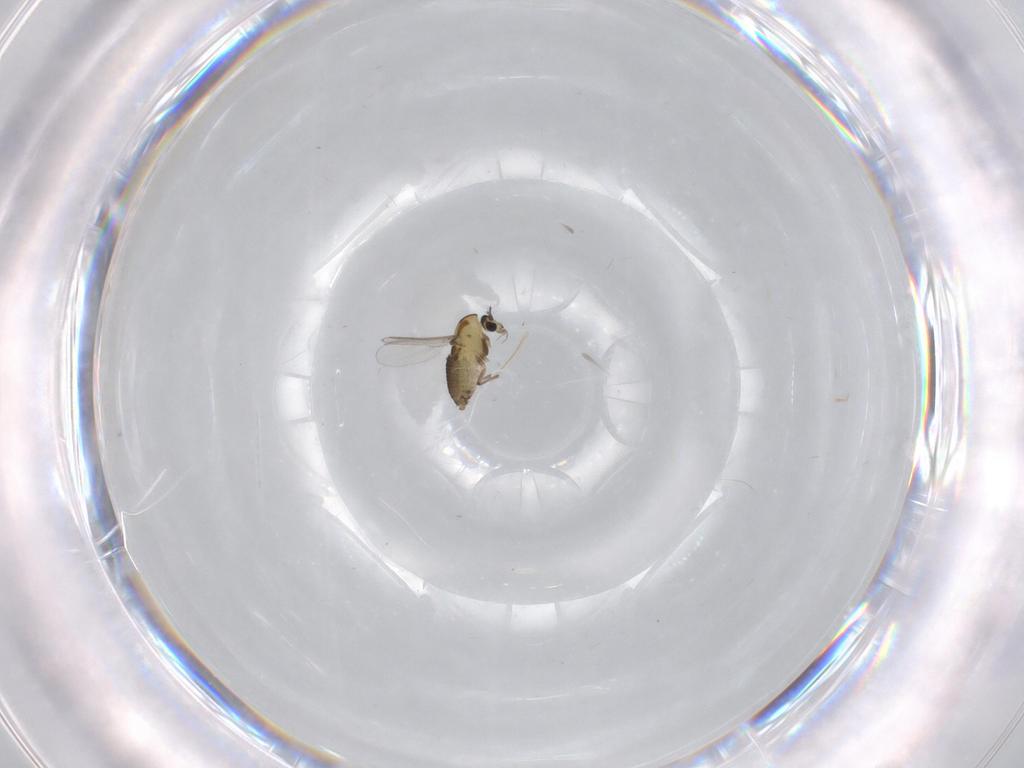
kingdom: Animalia
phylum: Arthropoda
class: Insecta
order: Diptera
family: Chironomidae
